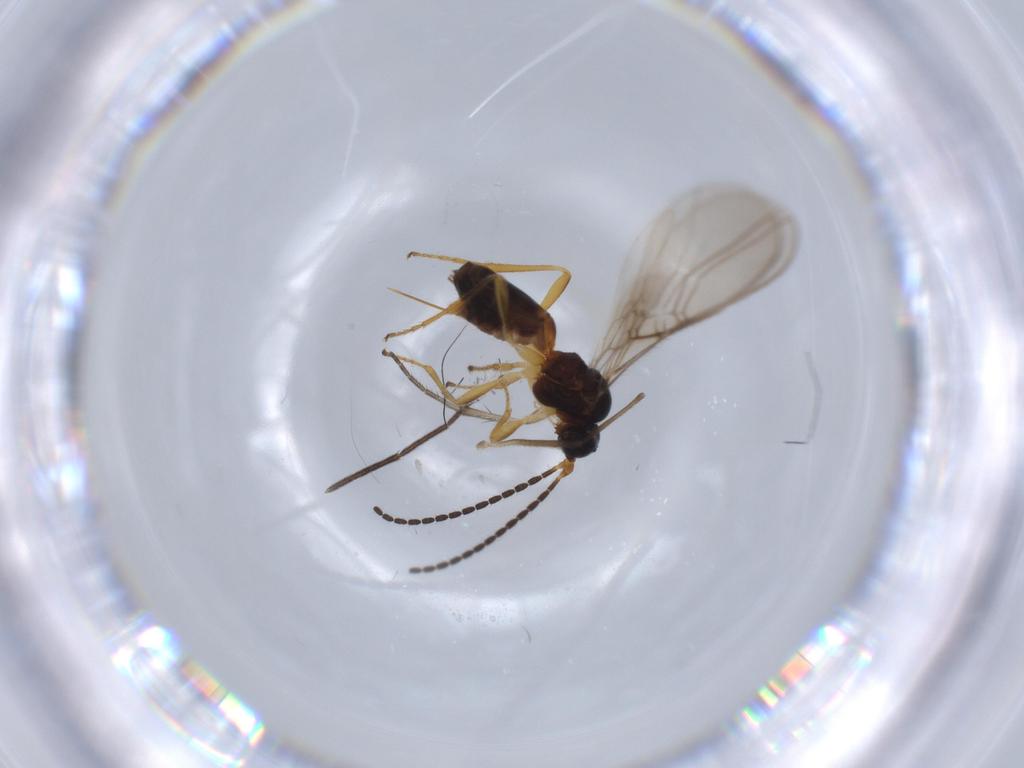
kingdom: Animalia
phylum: Arthropoda
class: Insecta
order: Hymenoptera
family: Braconidae
